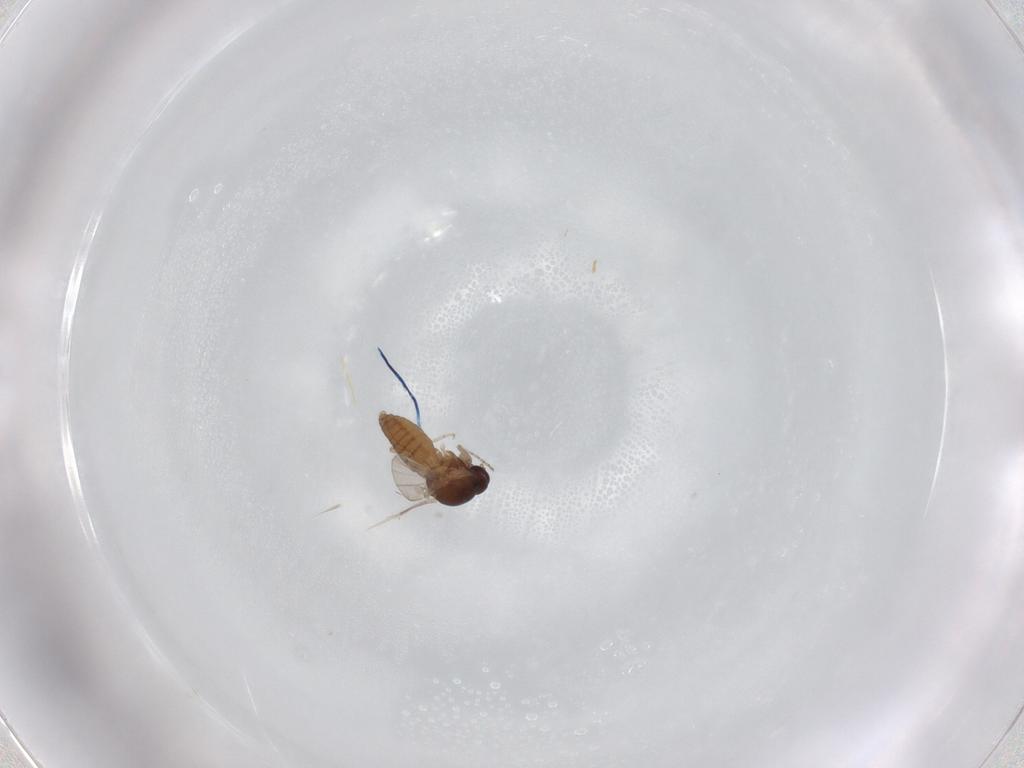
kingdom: Animalia
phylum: Arthropoda
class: Insecta
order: Diptera
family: Ceratopogonidae
